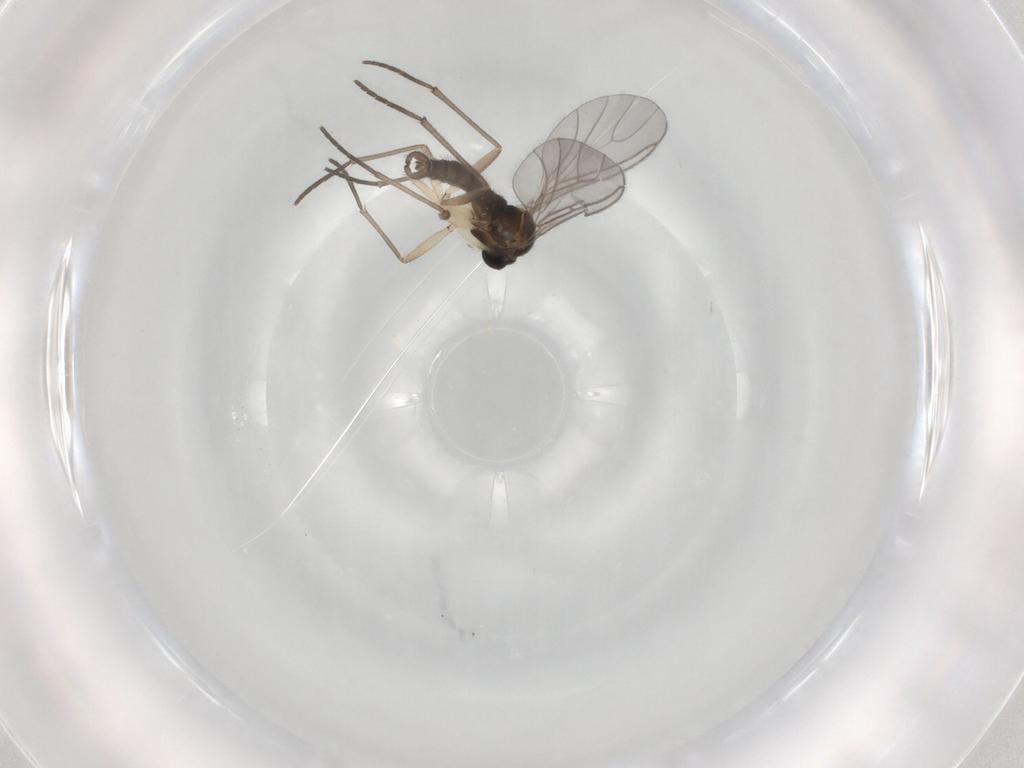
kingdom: Animalia
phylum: Arthropoda
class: Insecta
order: Diptera
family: Sciaridae
